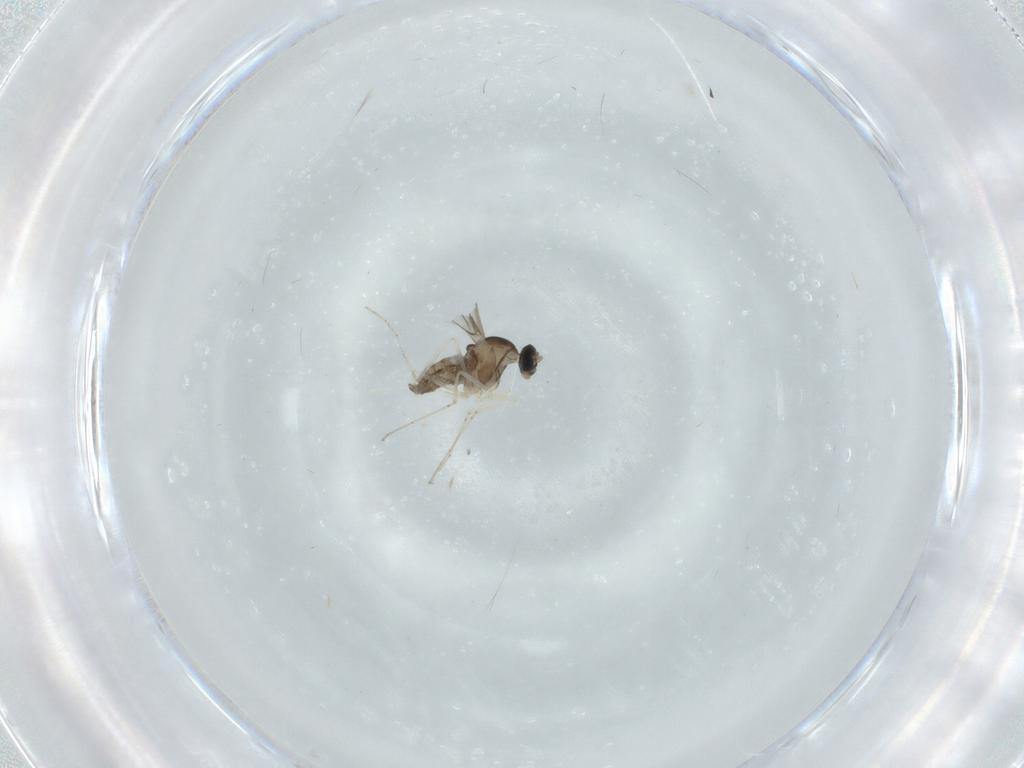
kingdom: Animalia
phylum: Arthropoda
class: Insecta
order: Diptera
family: Cecidomyiidae
